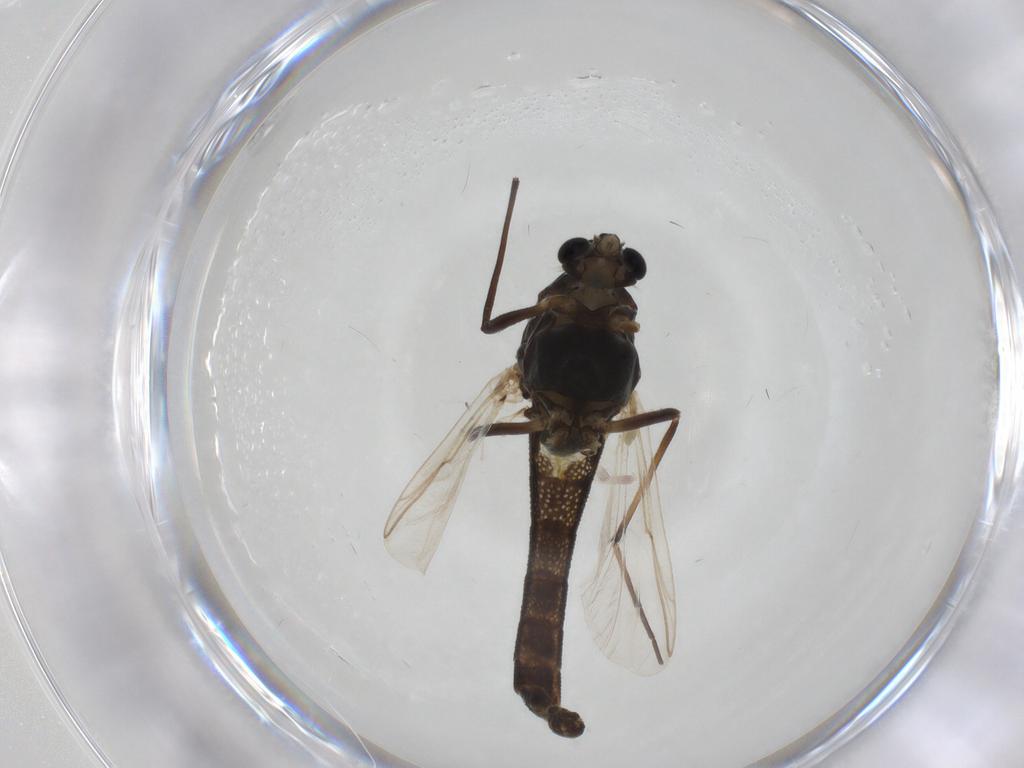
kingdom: Animalia
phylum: Arthropoda
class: Insecta
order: Diptera
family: Chironomidae
